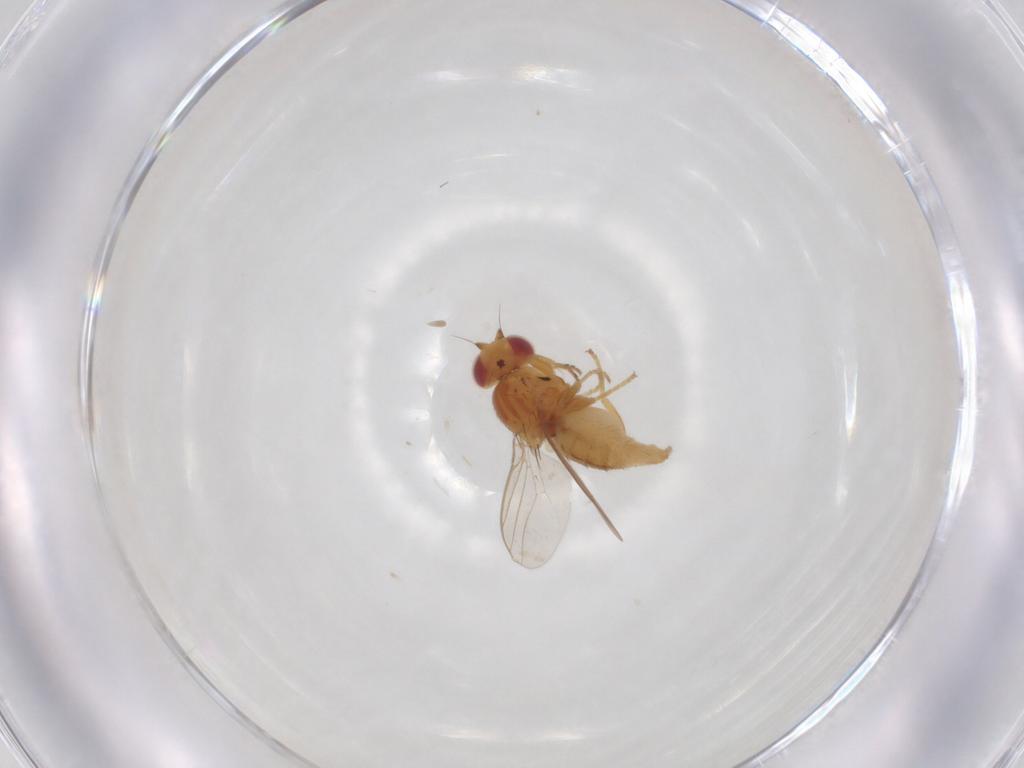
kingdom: Animalia
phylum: Arthropoda
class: Insecta
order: Diptera
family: Ceratopogonidae
